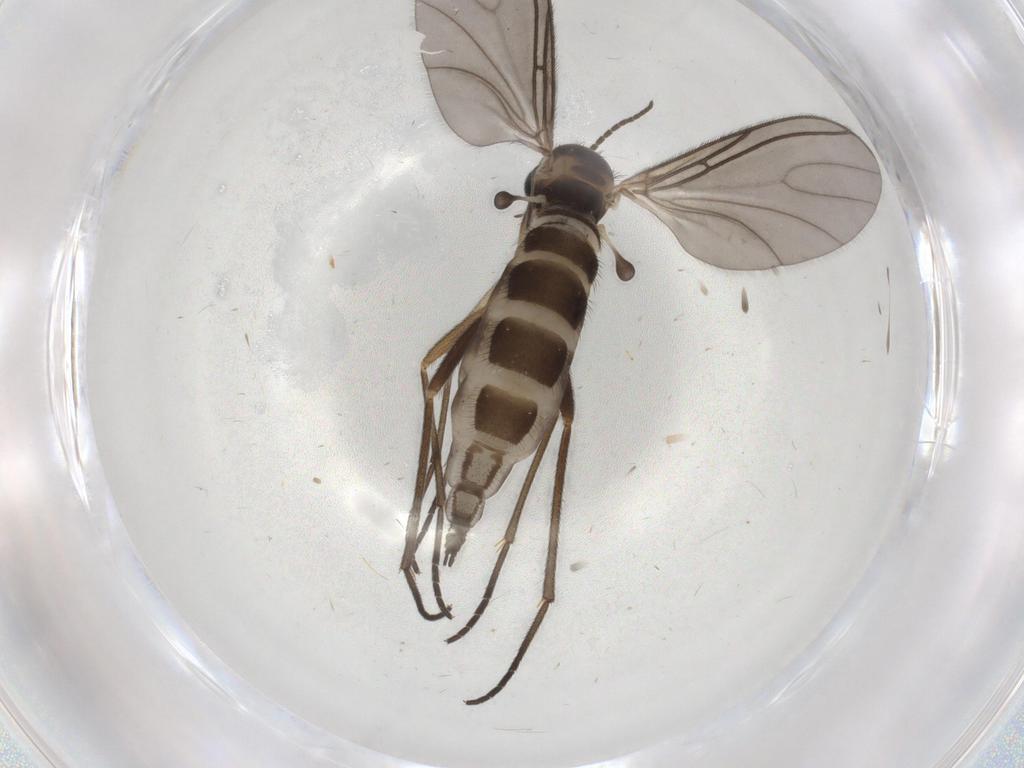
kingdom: Animalia
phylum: Arthropoda
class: Insecta
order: Diptera
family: Sciaridae
